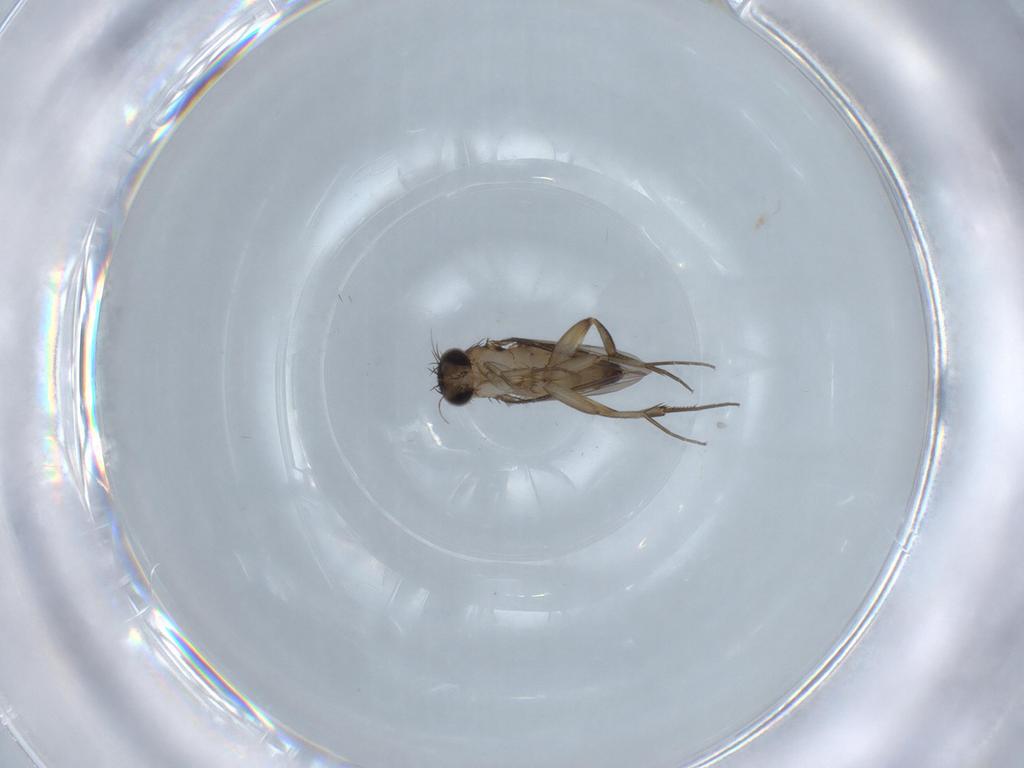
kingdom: Animalia
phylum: Arthropoda
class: Insecta
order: Diptera
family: Phoridae
